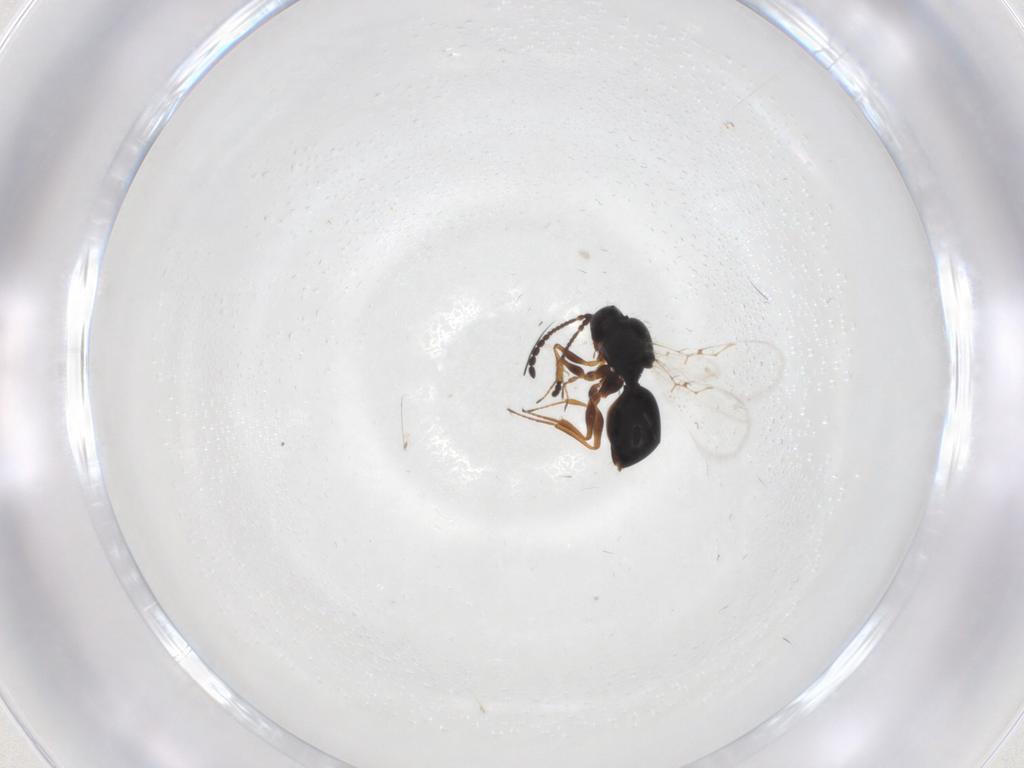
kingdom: Animalia
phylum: Arthropoda
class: Insecta
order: Hymenoptera
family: Figitidae
